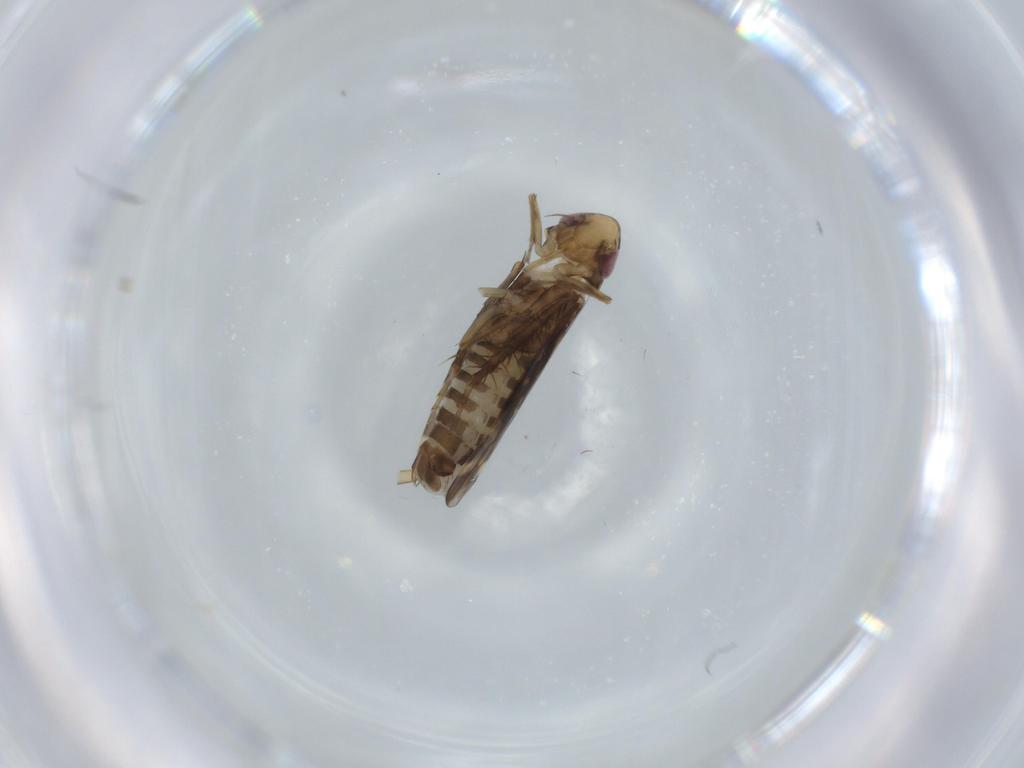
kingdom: Animalia
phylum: Arthropoda
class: Insecta
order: Hemiptera
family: Cicadellidae
